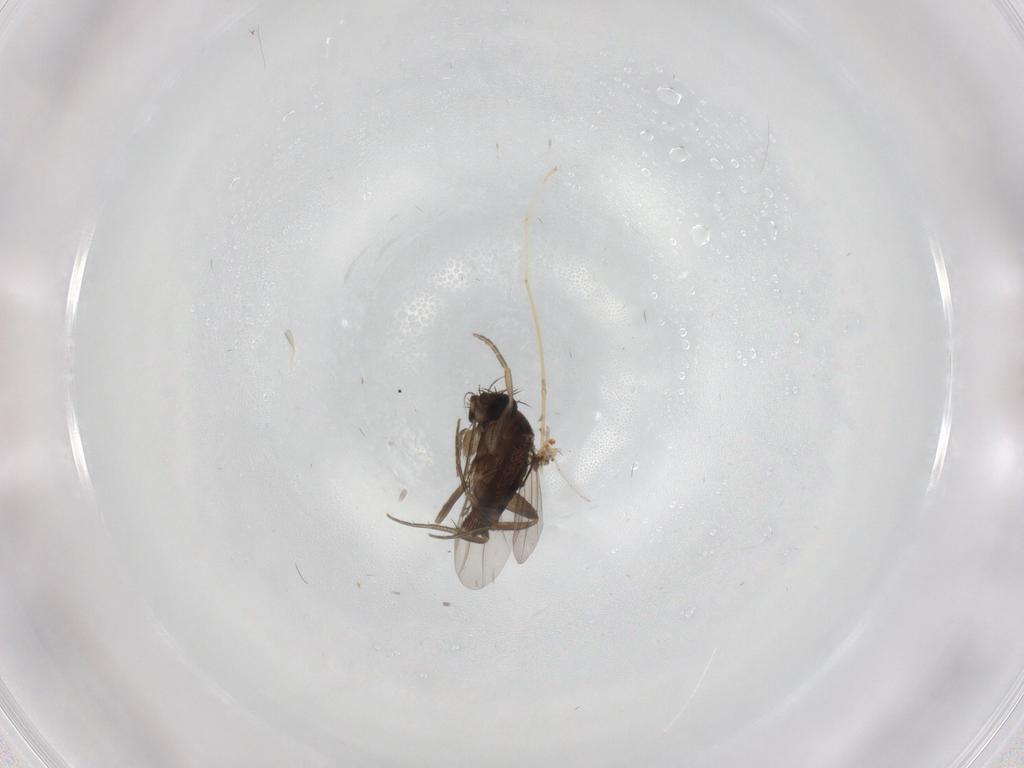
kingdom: Animalia
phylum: Arthropoda
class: Insecta
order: Diptera
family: Phoridae
